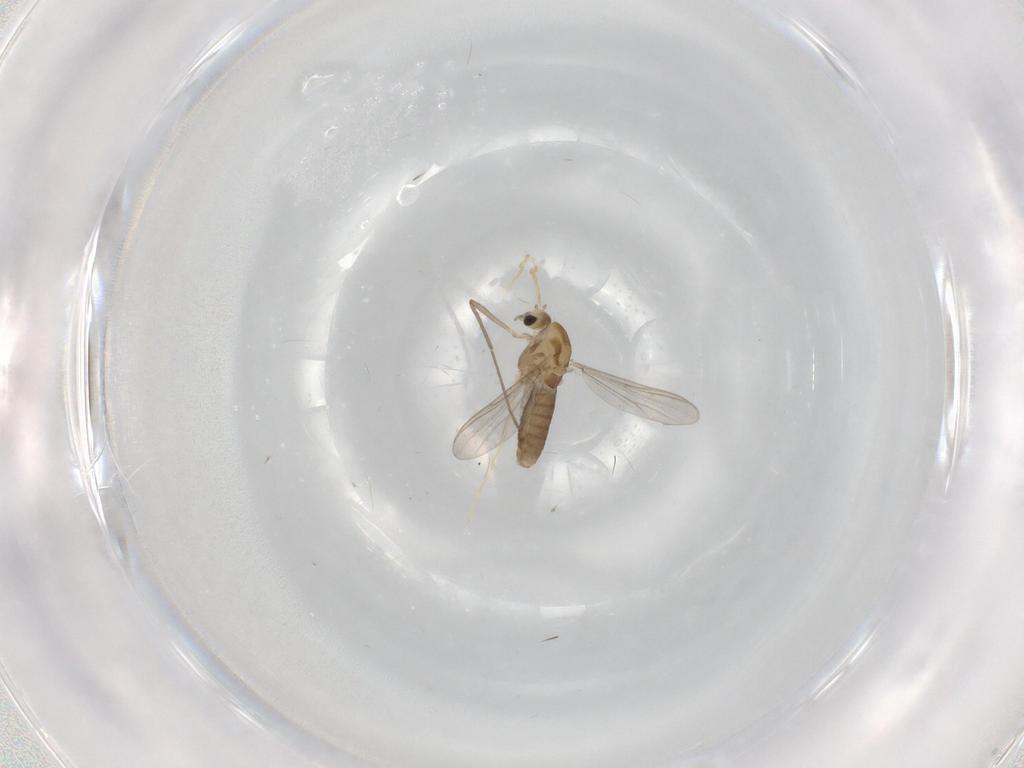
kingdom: Animalia
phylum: Arthropoda
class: Insecta
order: Diptera
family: Chironomidae
